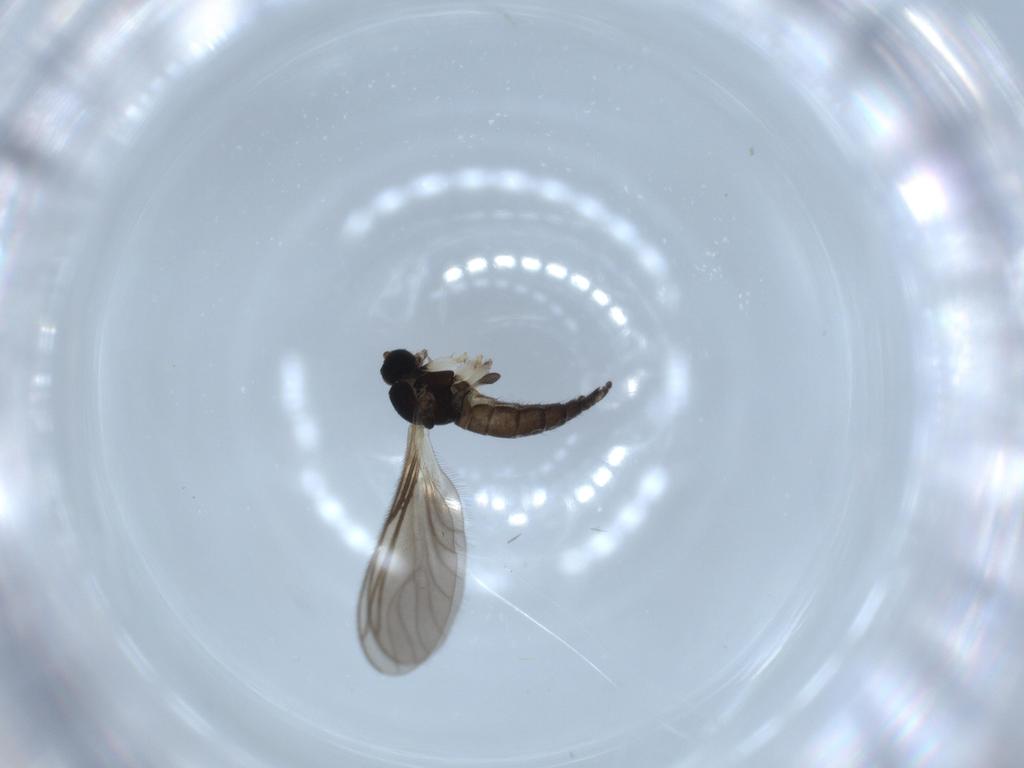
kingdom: Animalia
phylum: Arthropoda
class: Insecta
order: Diptera
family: Sciaridae
